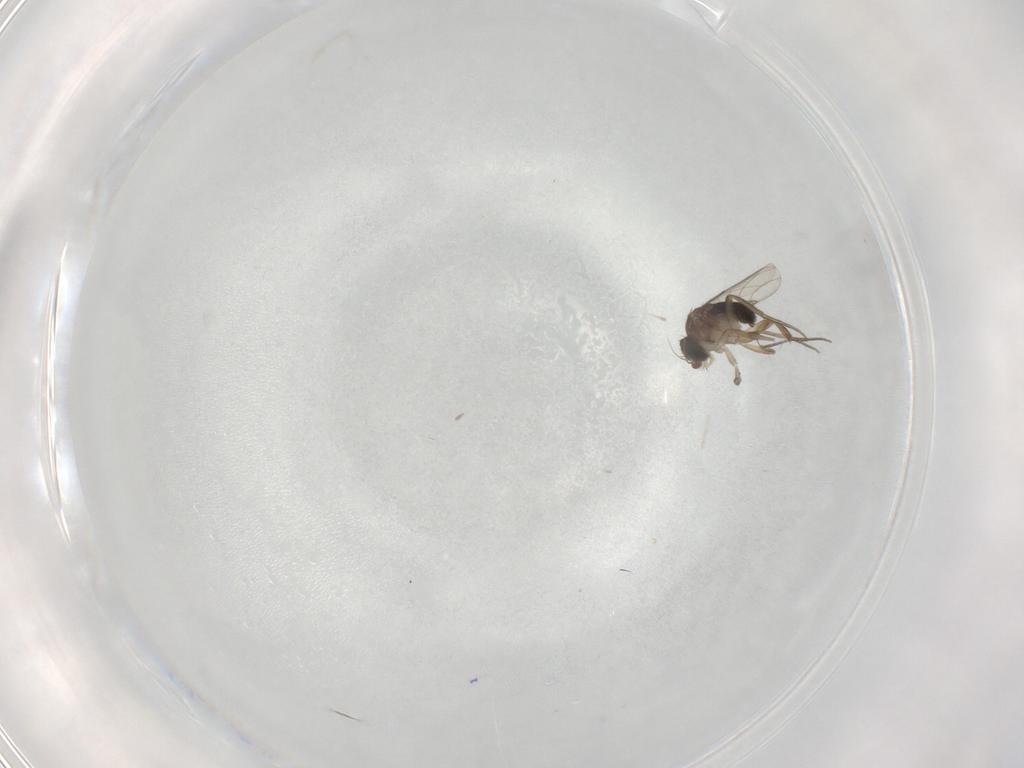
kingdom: Animalia
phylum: Arthropoda
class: Insecta
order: Diptera
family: Phoridae
